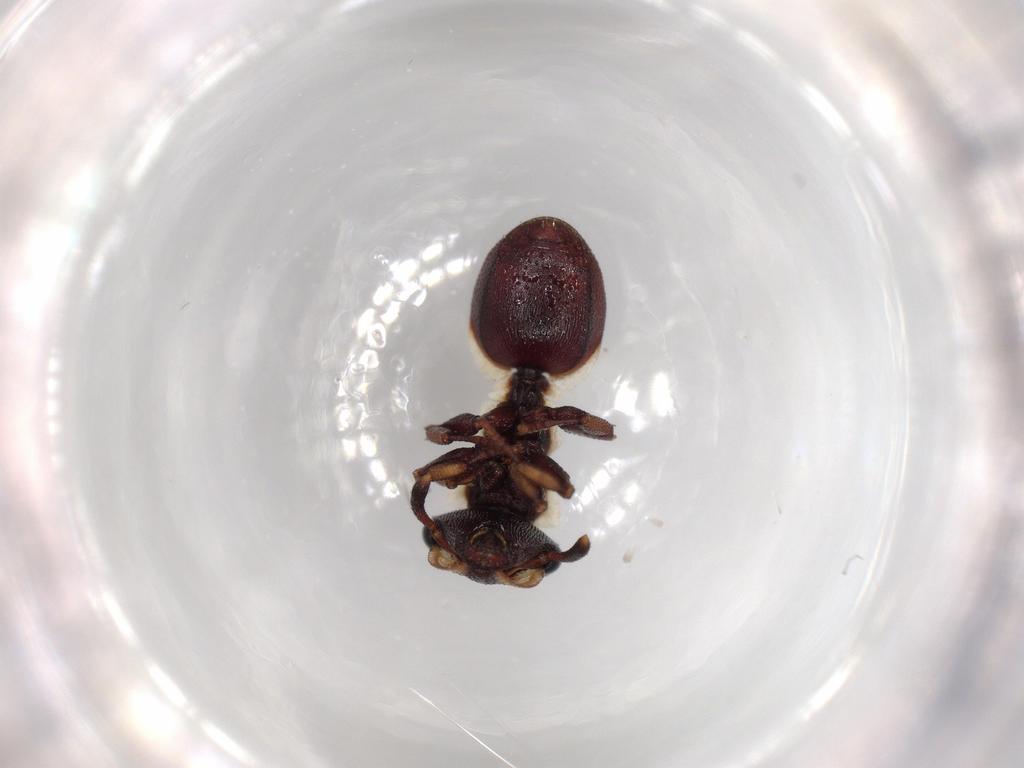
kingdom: Animalia
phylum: Arthropoda
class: Insecta
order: Hymenoptera
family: Formicidae
